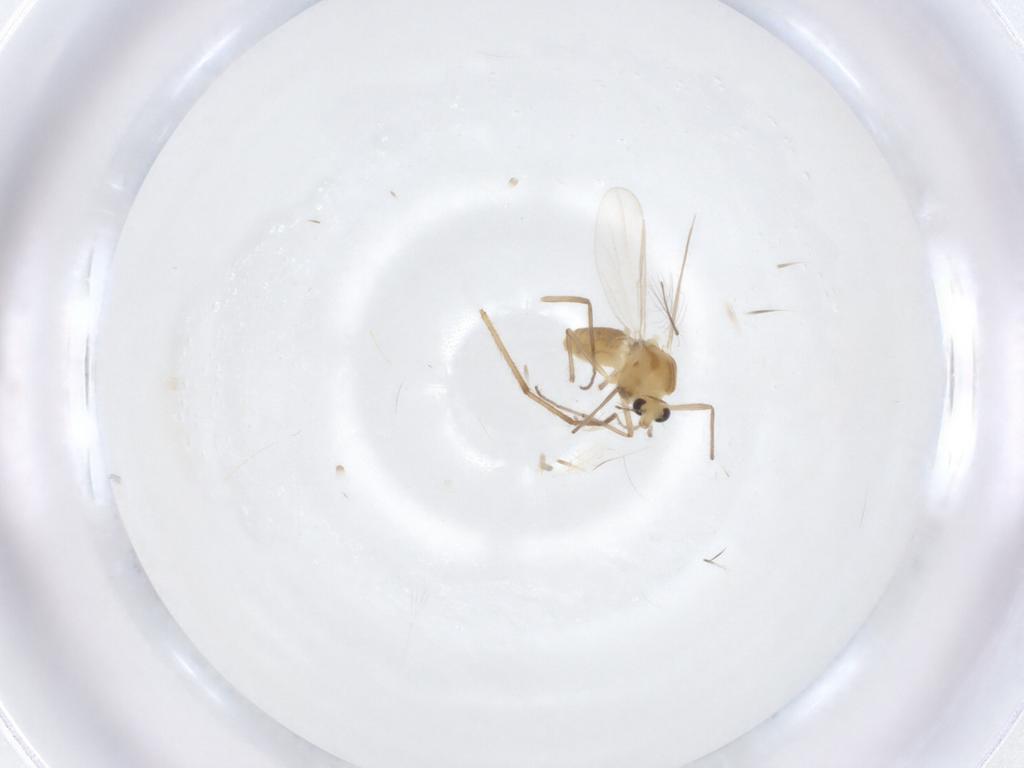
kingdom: Animalia
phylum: Arthropoda
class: Insecta
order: Diptera
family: Chironomidae
